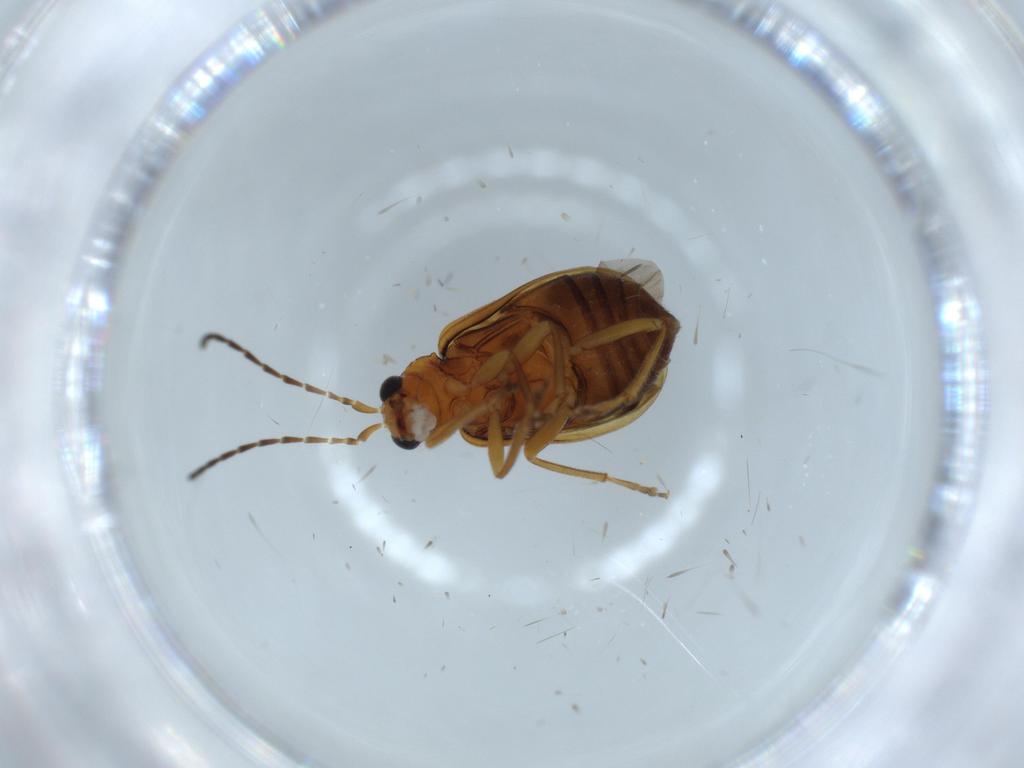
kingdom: Animalia
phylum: Arthropoda
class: Insecta
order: Coleoptera
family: Chrysomelidae
